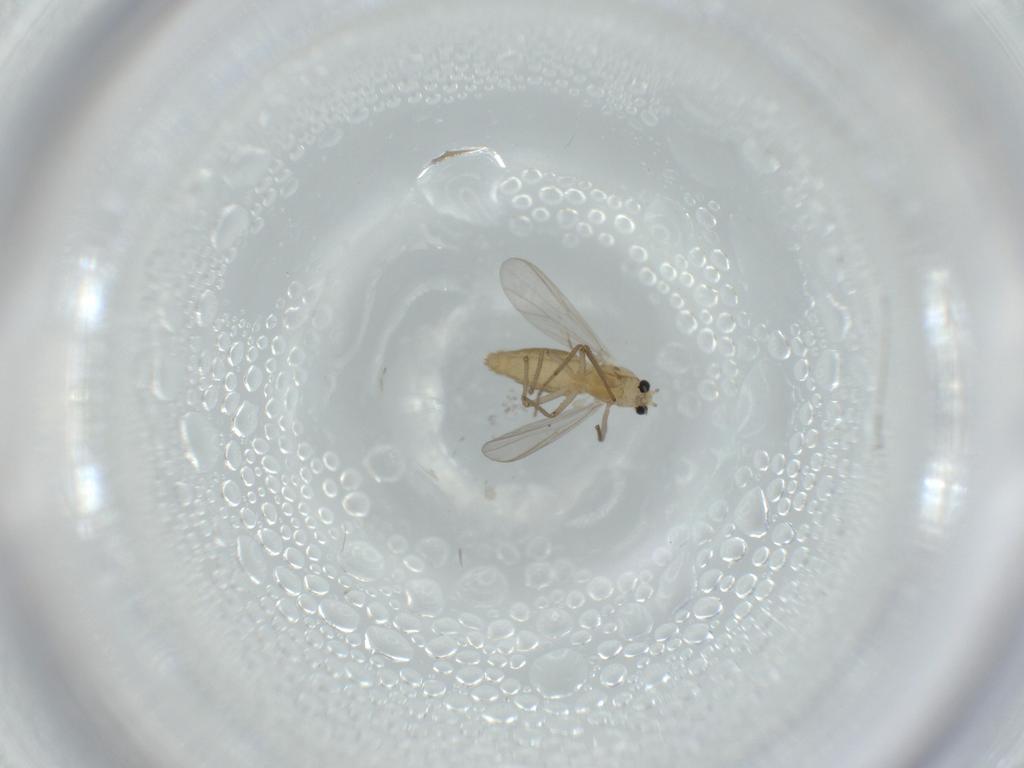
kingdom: Animalia
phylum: Arthropoda
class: Insecta
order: Diptera
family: Chironomidae
